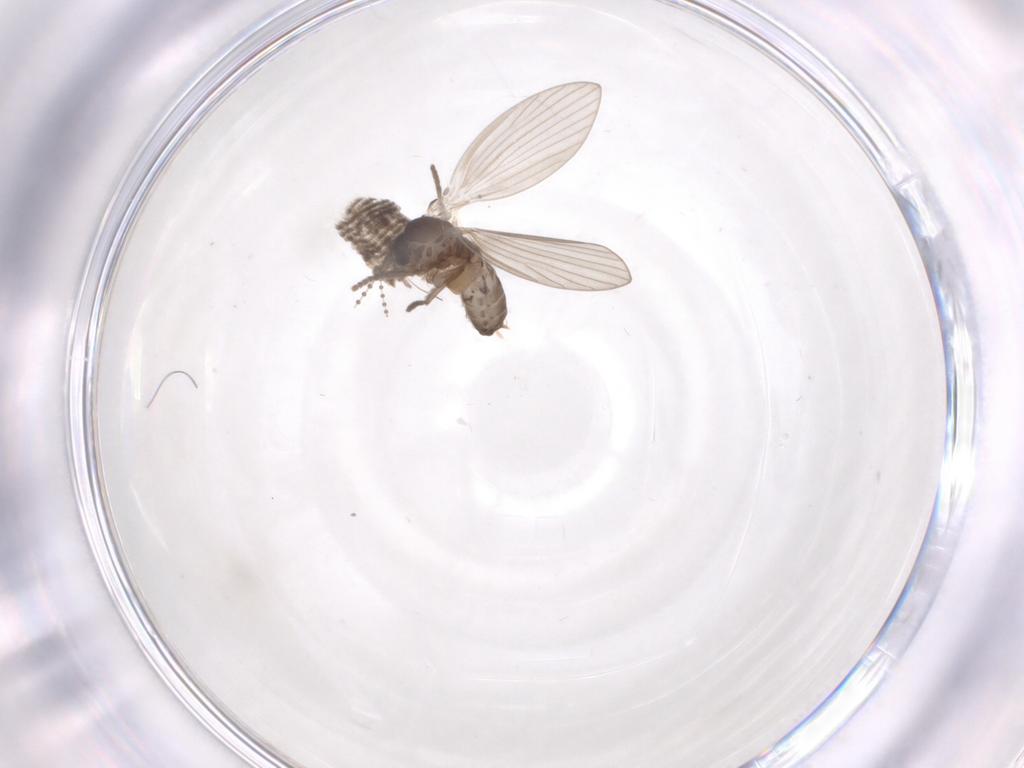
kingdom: Animalia
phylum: Arthropoda
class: Insecta
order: Diptera
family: Psychodidae
